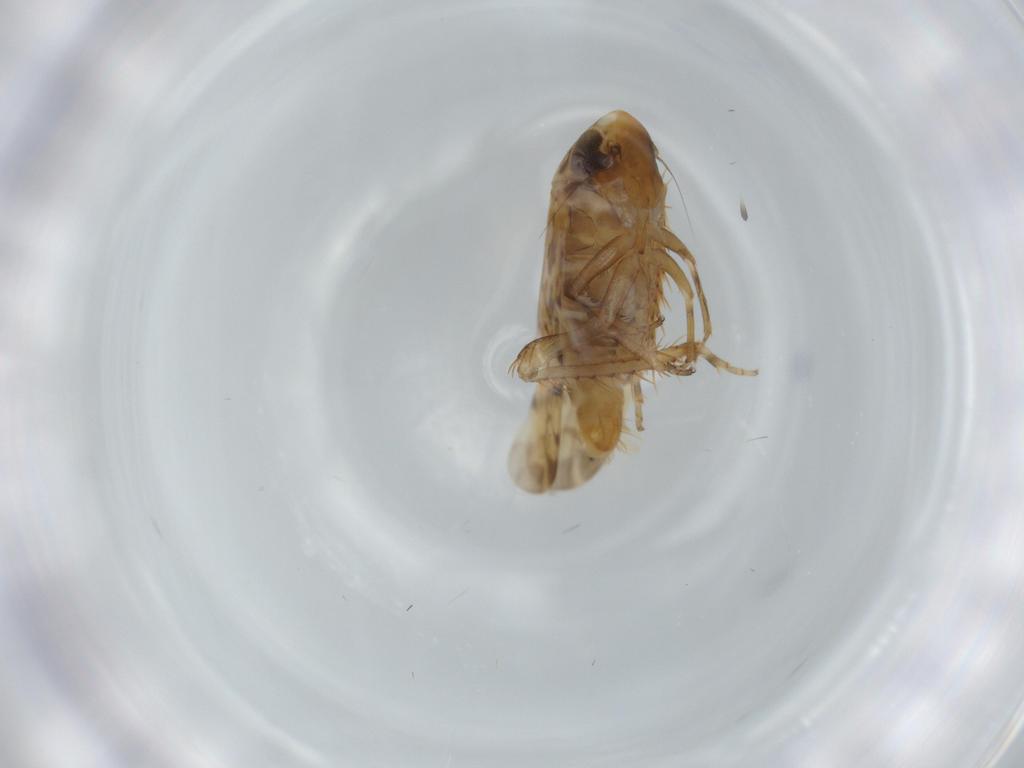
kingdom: Animalia
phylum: Arthropoda
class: Insecta
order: Hemiptera
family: Cicadellidae
